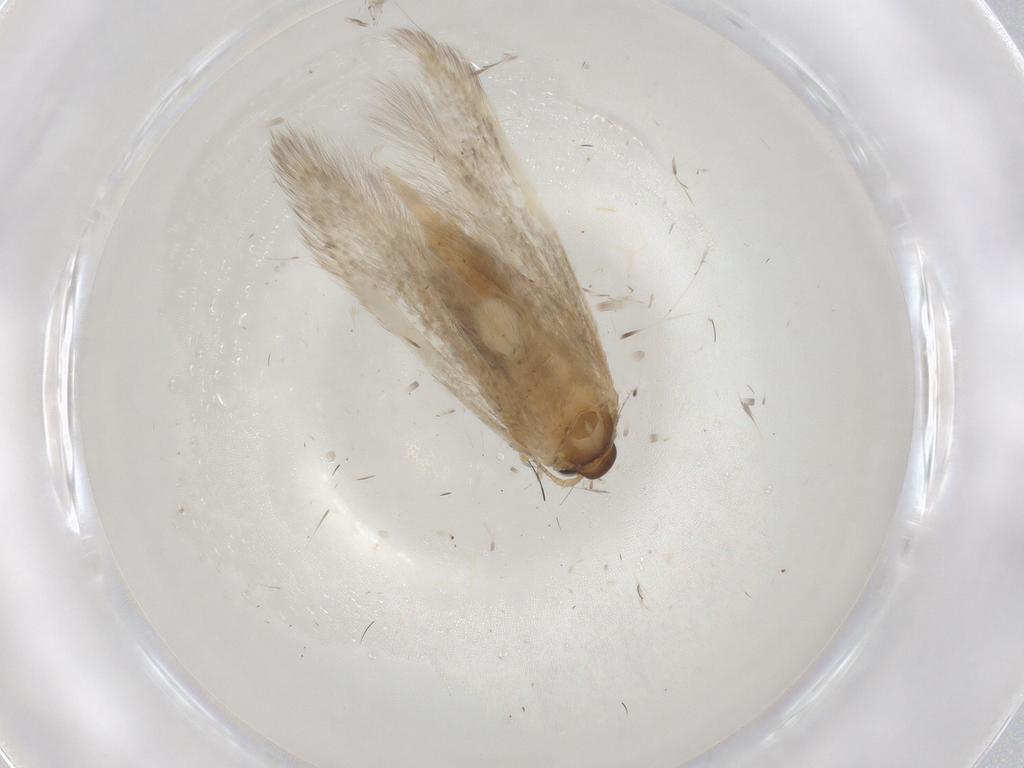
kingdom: Animalia
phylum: Arthropoda
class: Insecta
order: Lepidoptera
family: Blastobasidae
